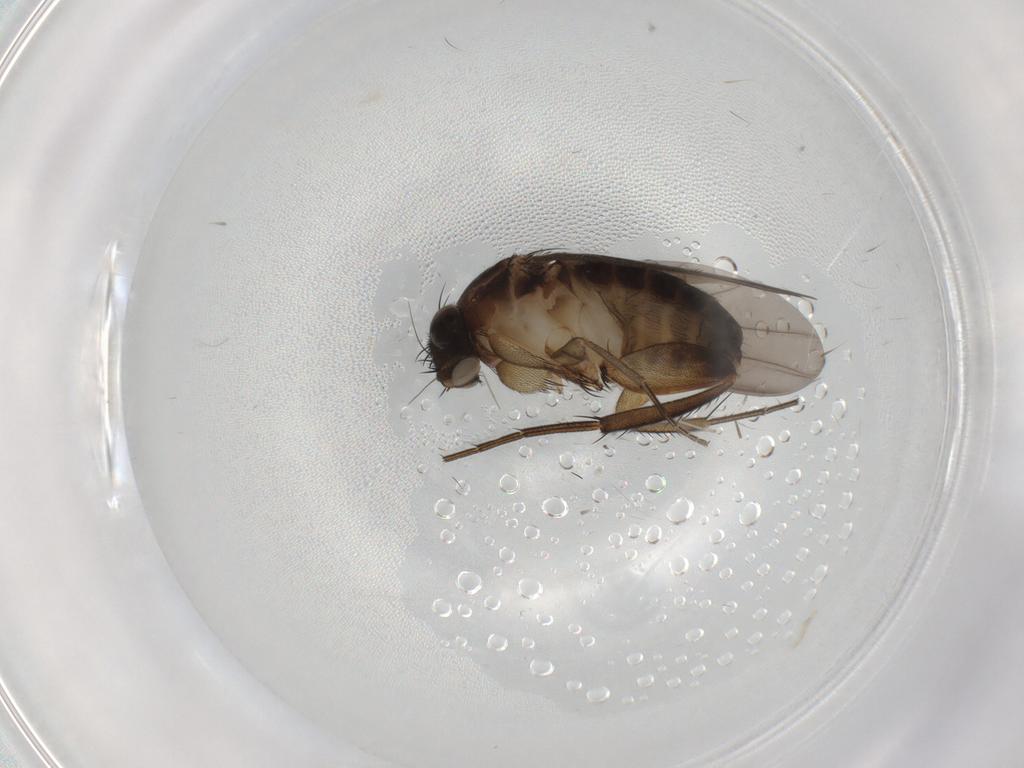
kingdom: Animalia
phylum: Arthropoda
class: Insecta
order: Diptera
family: Phoridae
